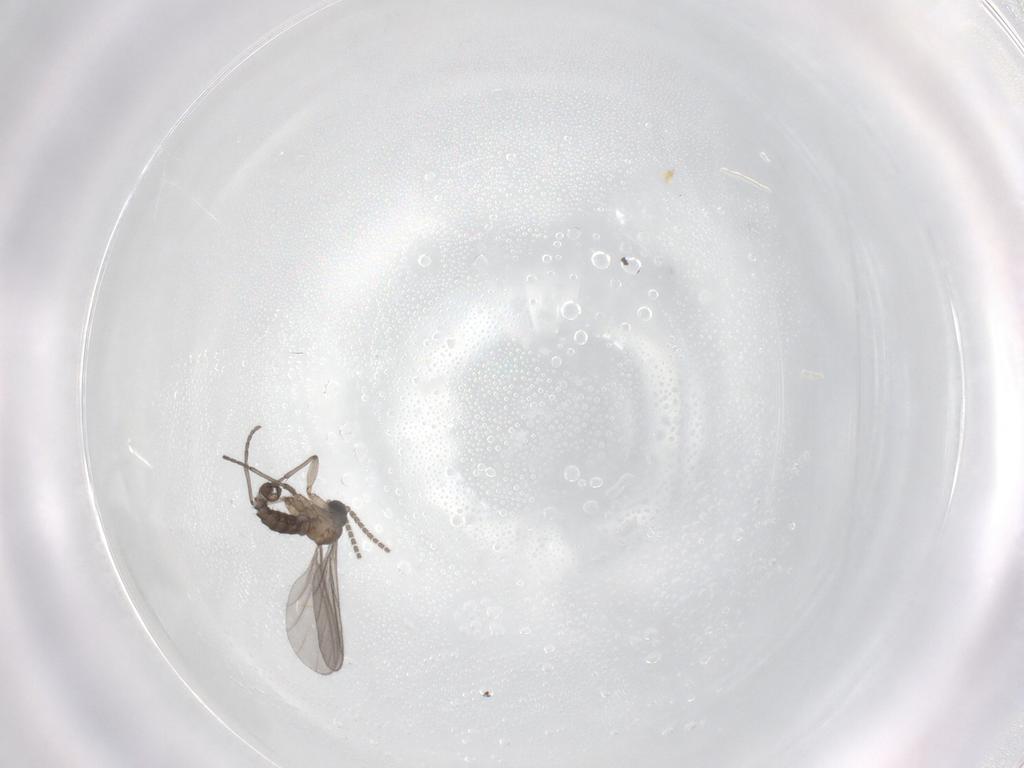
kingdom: Animalia
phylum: Arthropoda
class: Insecta
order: Diptera
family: Sciaridae
